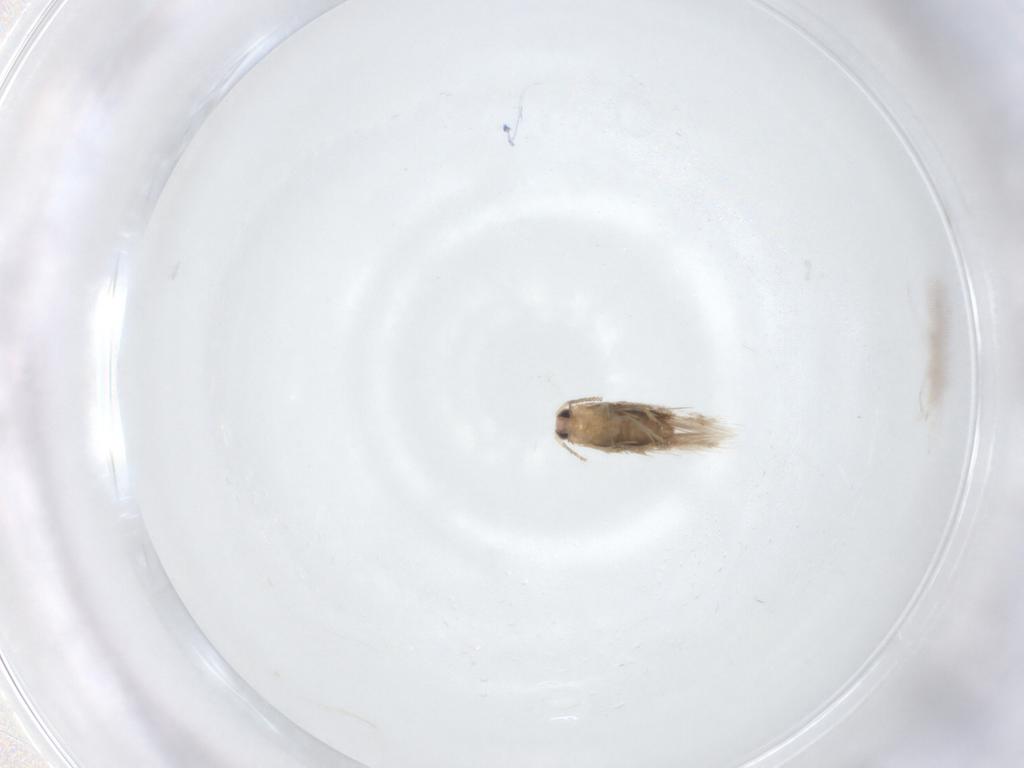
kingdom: Animalia
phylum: Arthropoda
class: Insecta
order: Lepidoptera
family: Nepticulidae
